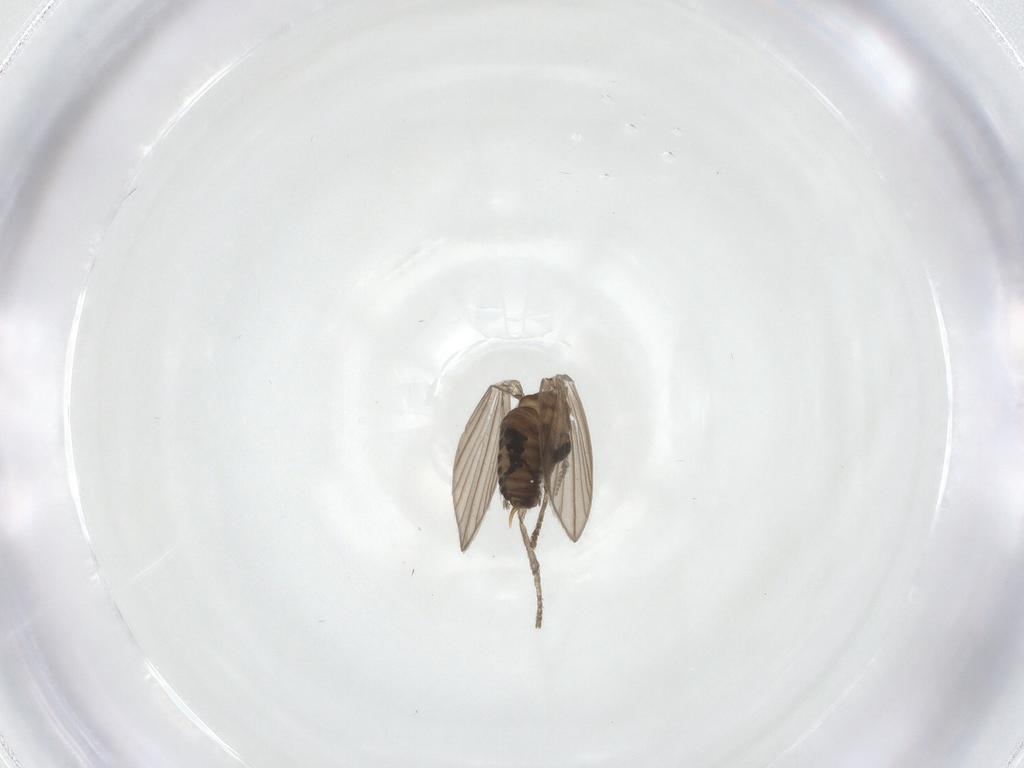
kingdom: Animalia
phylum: Arthropoda
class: Insecta
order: Diptera
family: Psychodidae
